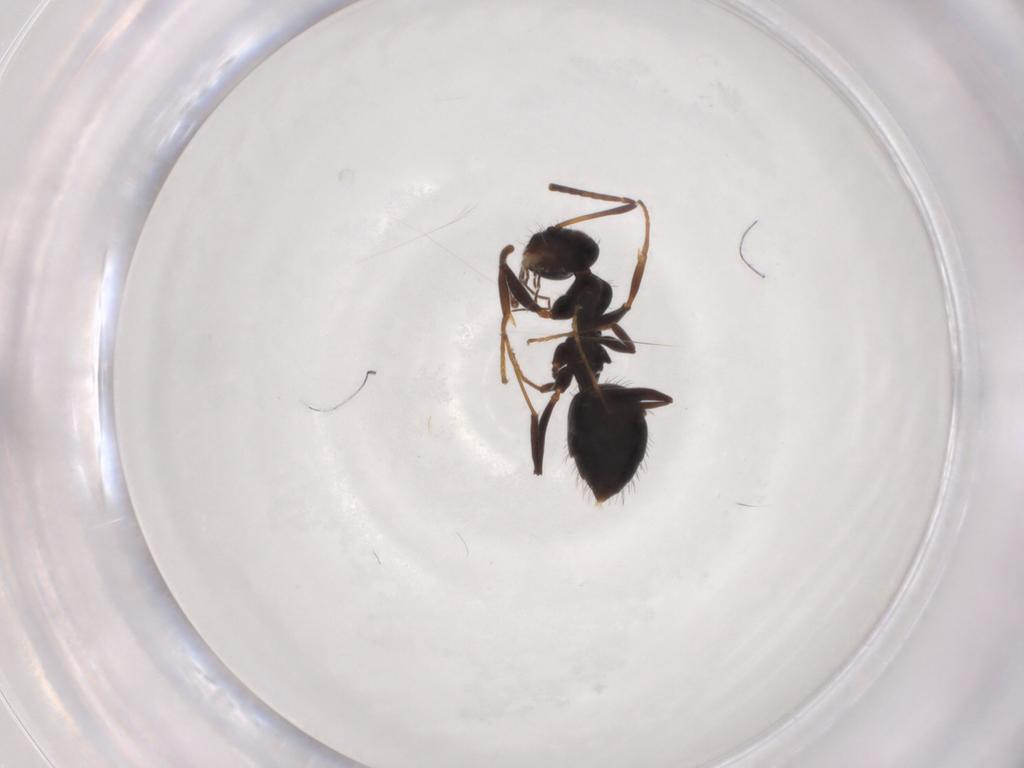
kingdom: Animalia
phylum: Arthropoda
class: Insecta
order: Hymenoptera
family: Formicidae
